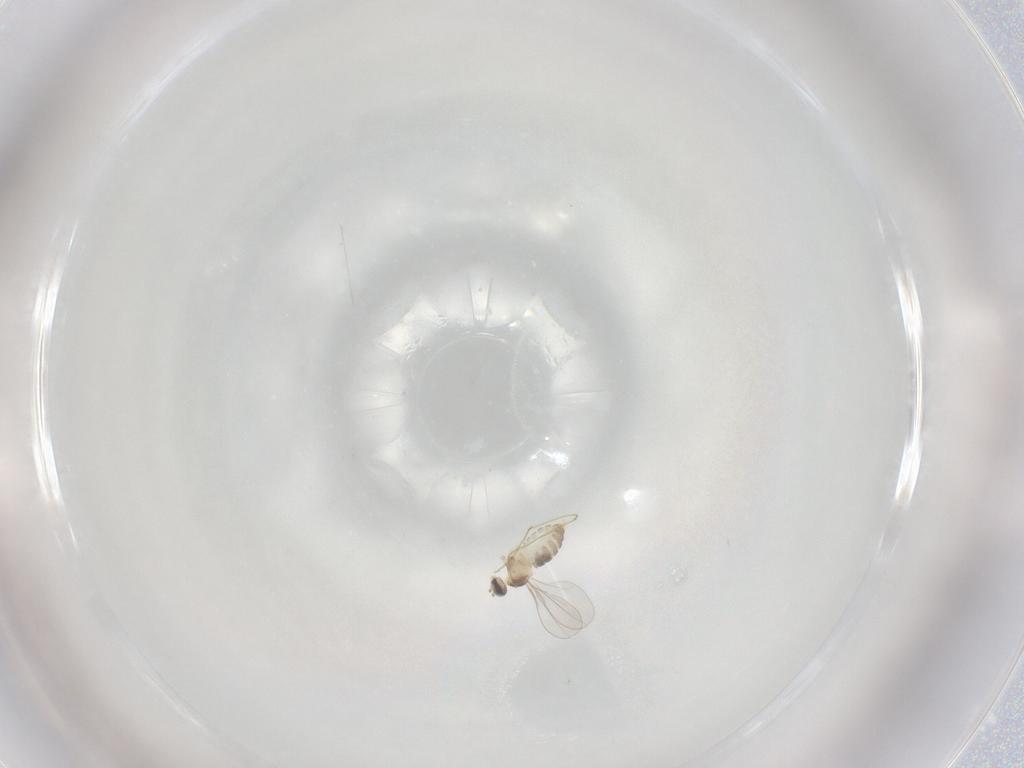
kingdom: Animalia
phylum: Arthropoda
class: Insecta
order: Diptera
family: Cecidomyiidae
